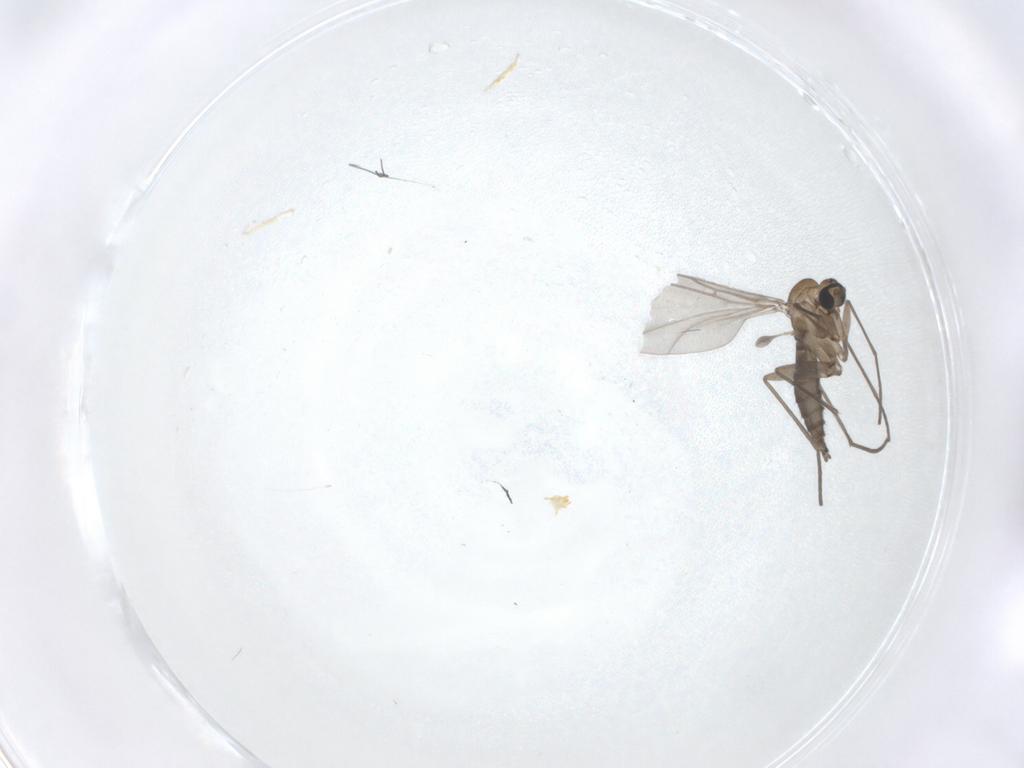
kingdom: Animalia
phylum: Arthropoda
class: Insecta
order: Diptera
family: Sciaridae
